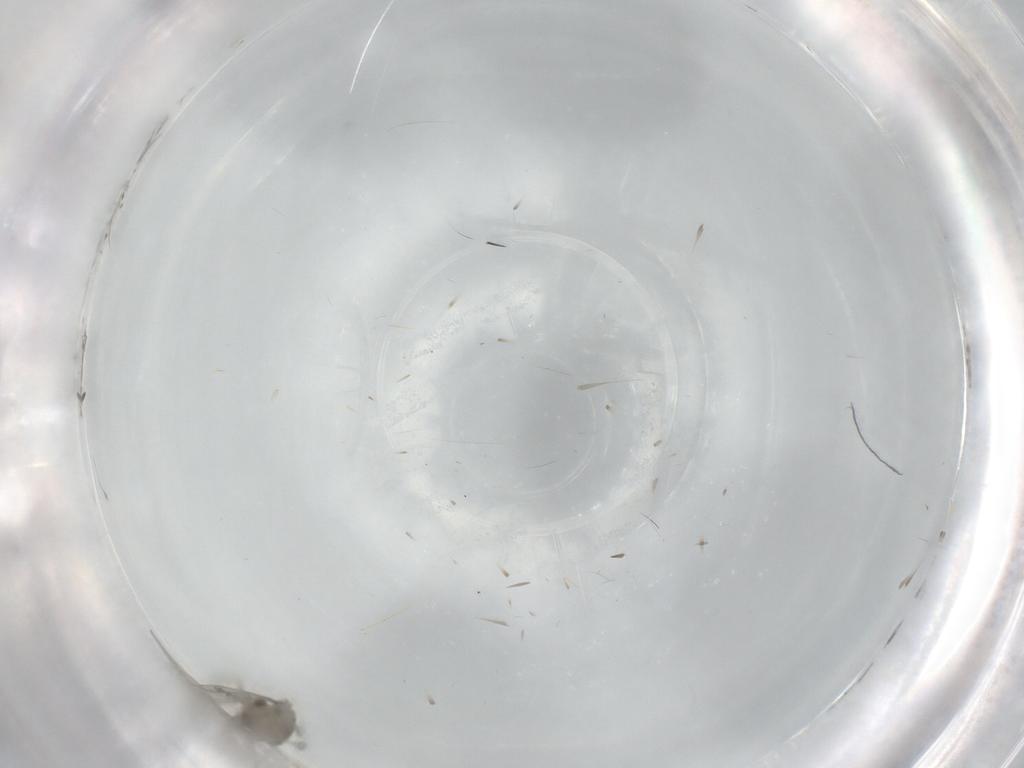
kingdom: Animalia
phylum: Arthropoda
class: Insecta
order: Diptera
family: Cecidomyiidae
